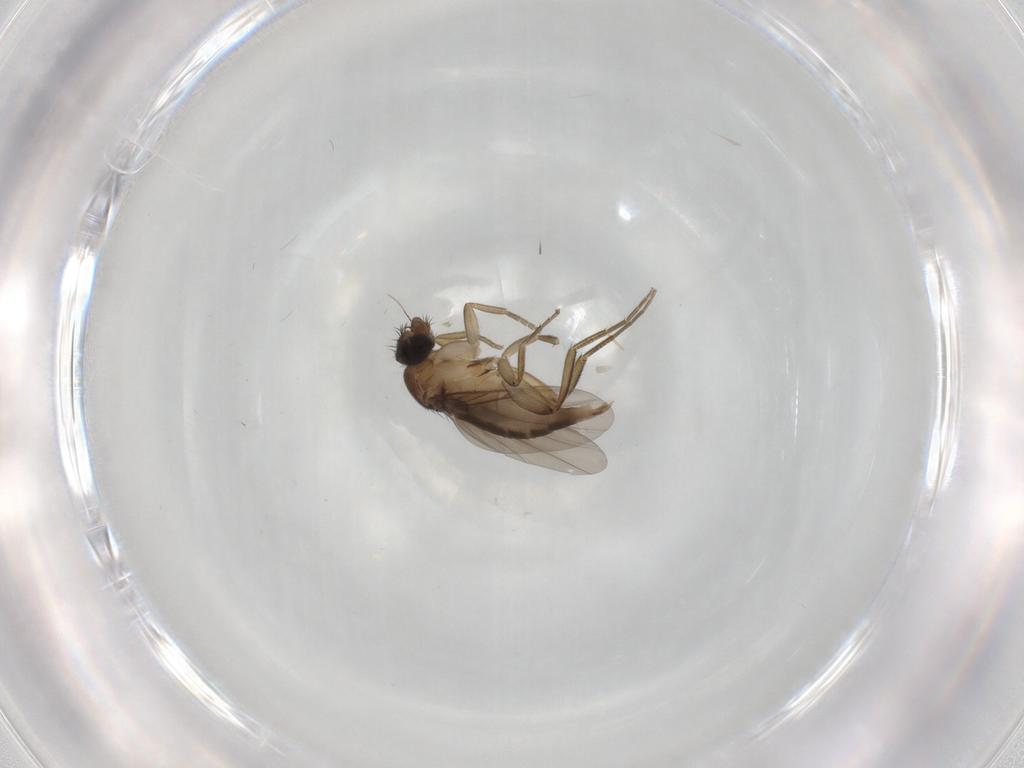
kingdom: Animalia
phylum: Arthropoda
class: Insecta
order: Diptera
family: Phoridae
